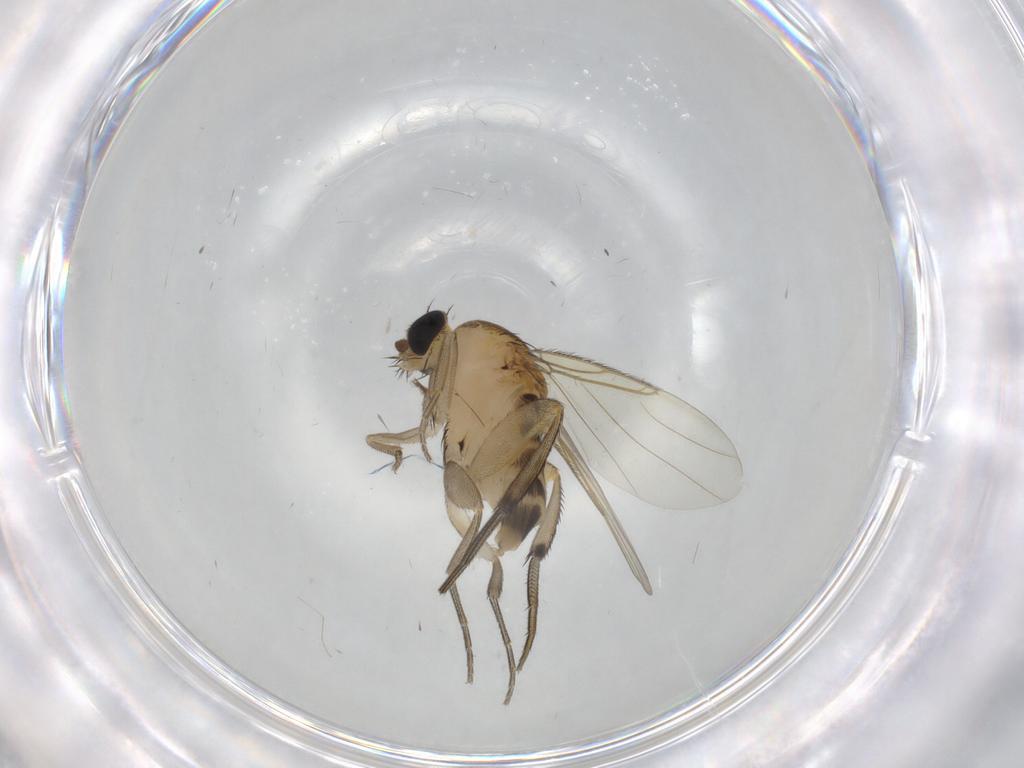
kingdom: Animalia
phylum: Arthropoda
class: Insecta
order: Diptera
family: Phoridae
